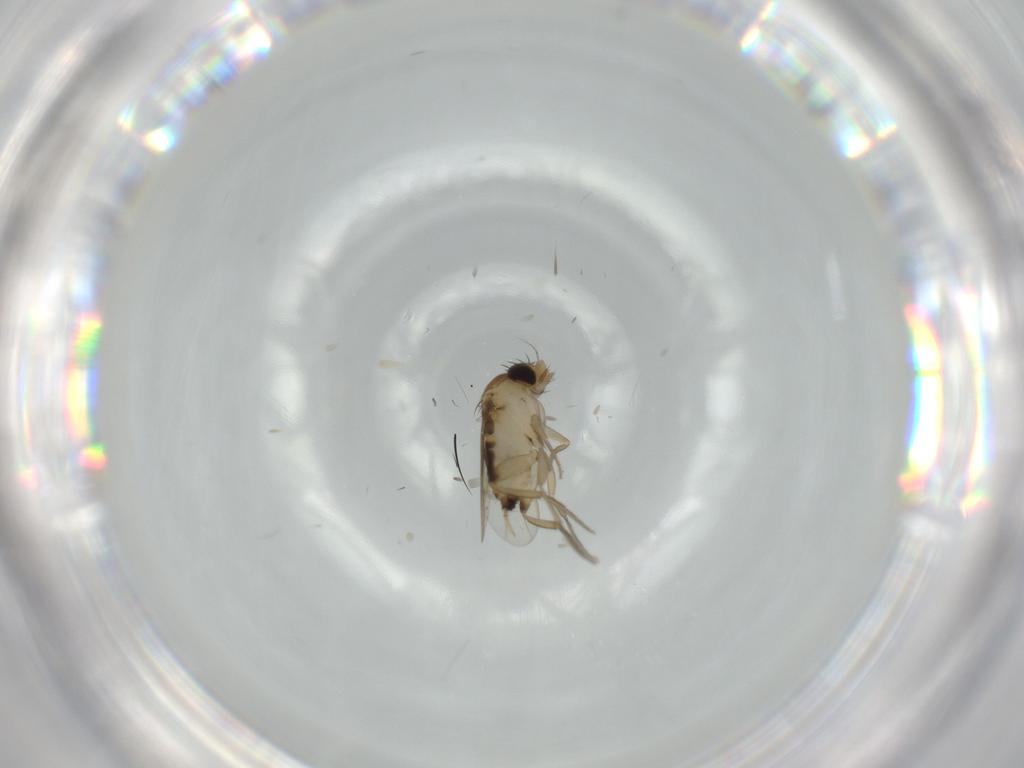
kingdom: Animalia
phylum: Arthropoda
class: Insecta
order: Diptera
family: Phoridae
